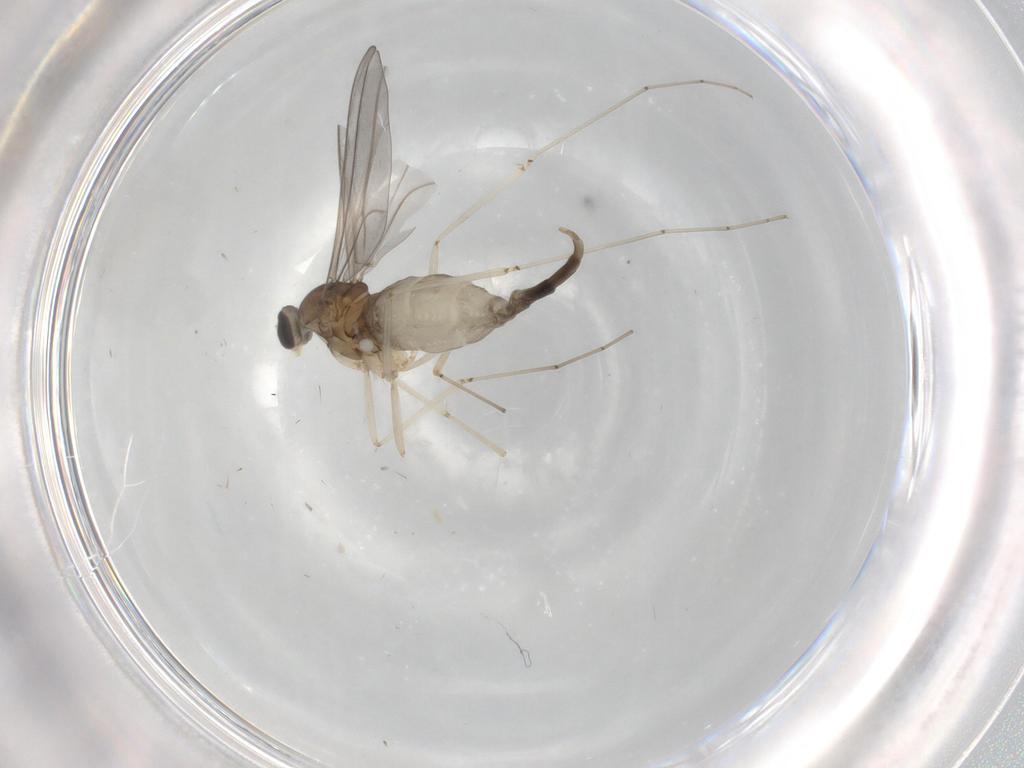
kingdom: Animalia
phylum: Arthropoda
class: Insecta
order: Diptera
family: Cecidomyiidae
